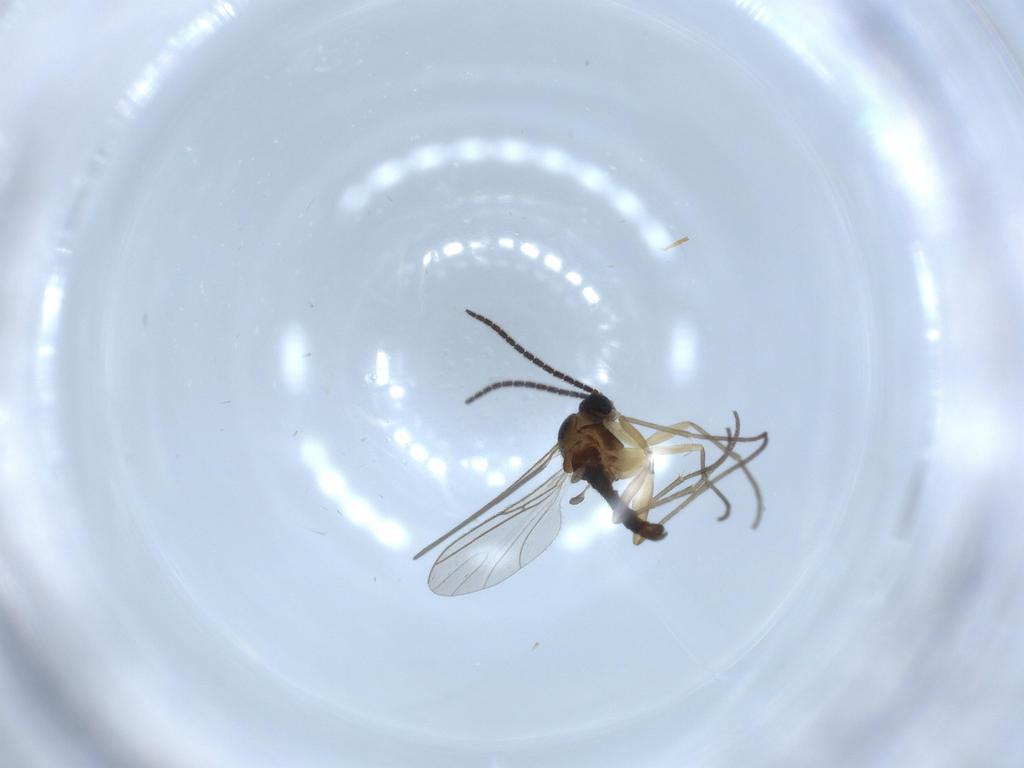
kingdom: Animalia
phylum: Arthropoda
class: Insecta
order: Diptera
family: Sciaridae
